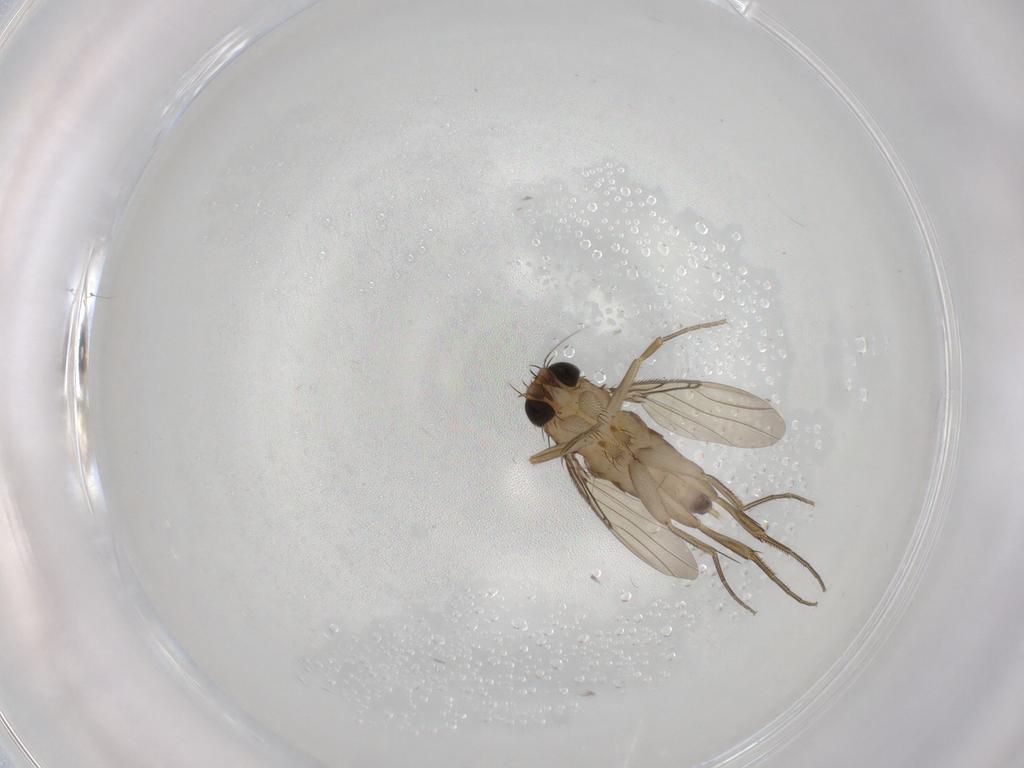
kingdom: Animalia
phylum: Arthropoda
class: Insecta
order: Diptera
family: Phoridae
